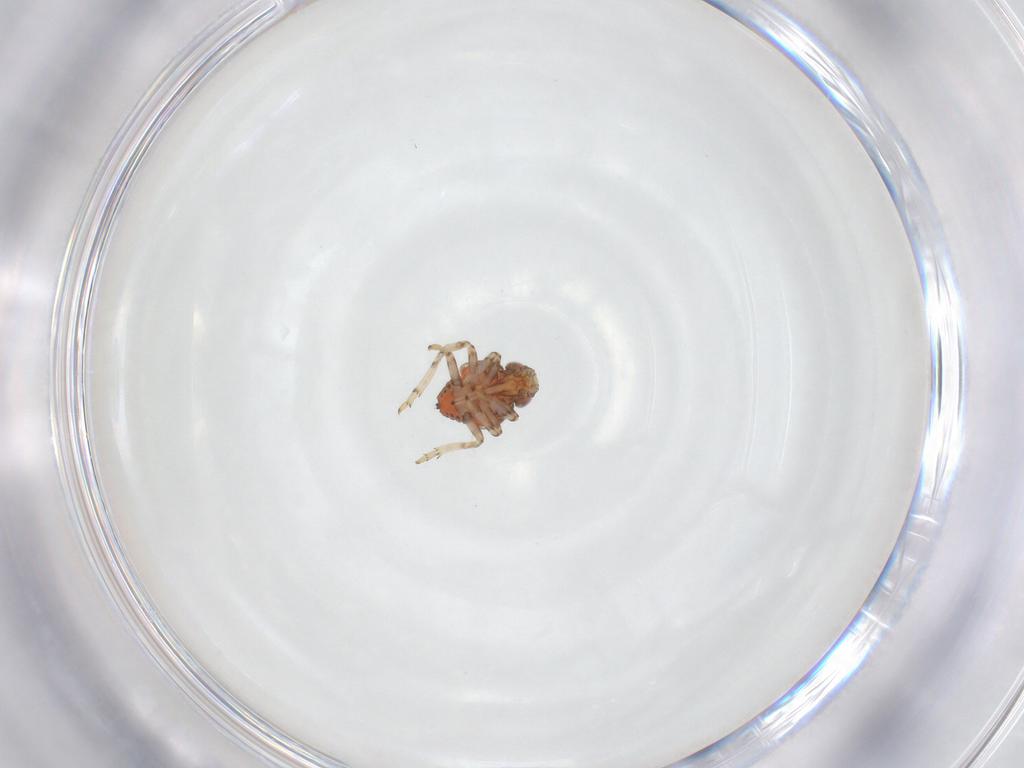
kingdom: Animalia
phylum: Arthropoda
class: Insecta
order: Hemiptera
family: Issidae
